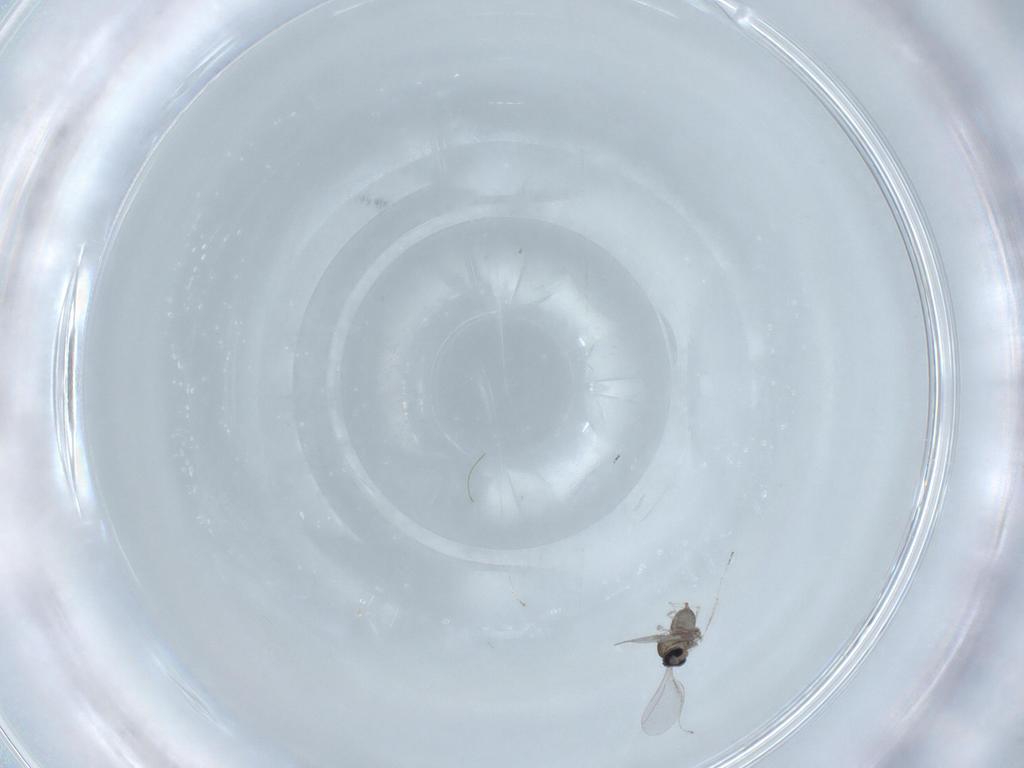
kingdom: Animalia
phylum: Arthropoda
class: Insecta
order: Diptera
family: Cecidomyiidae
